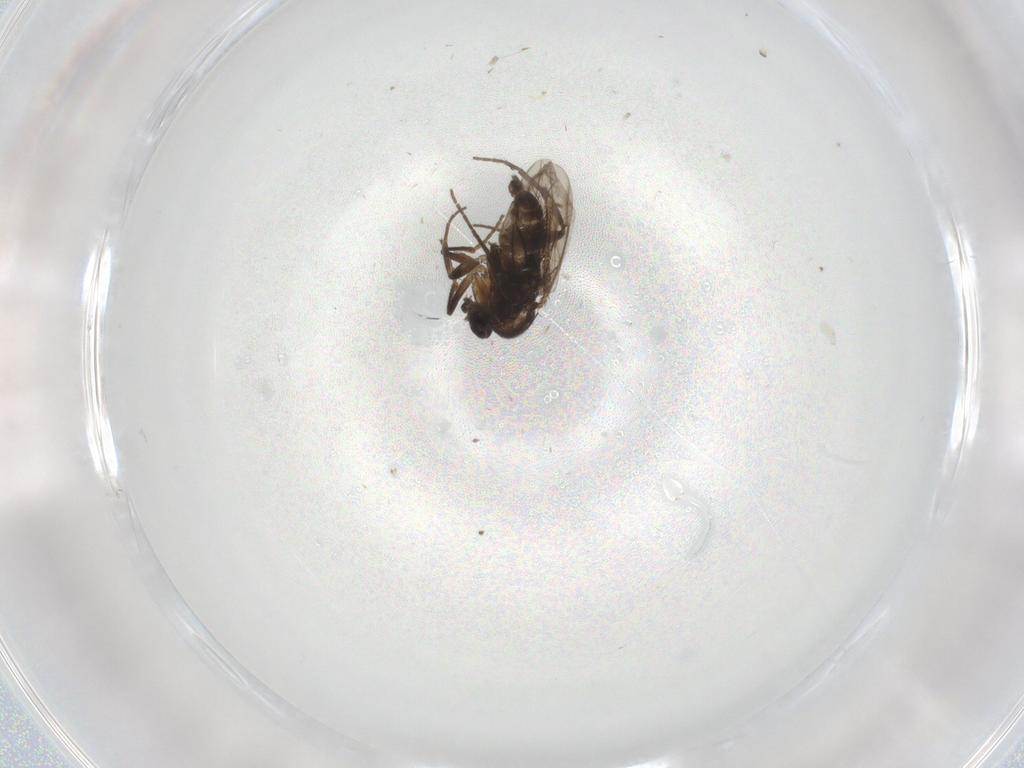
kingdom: Animalia
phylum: Arthropoda
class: Insecta
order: Diptera
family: Clusiidae
